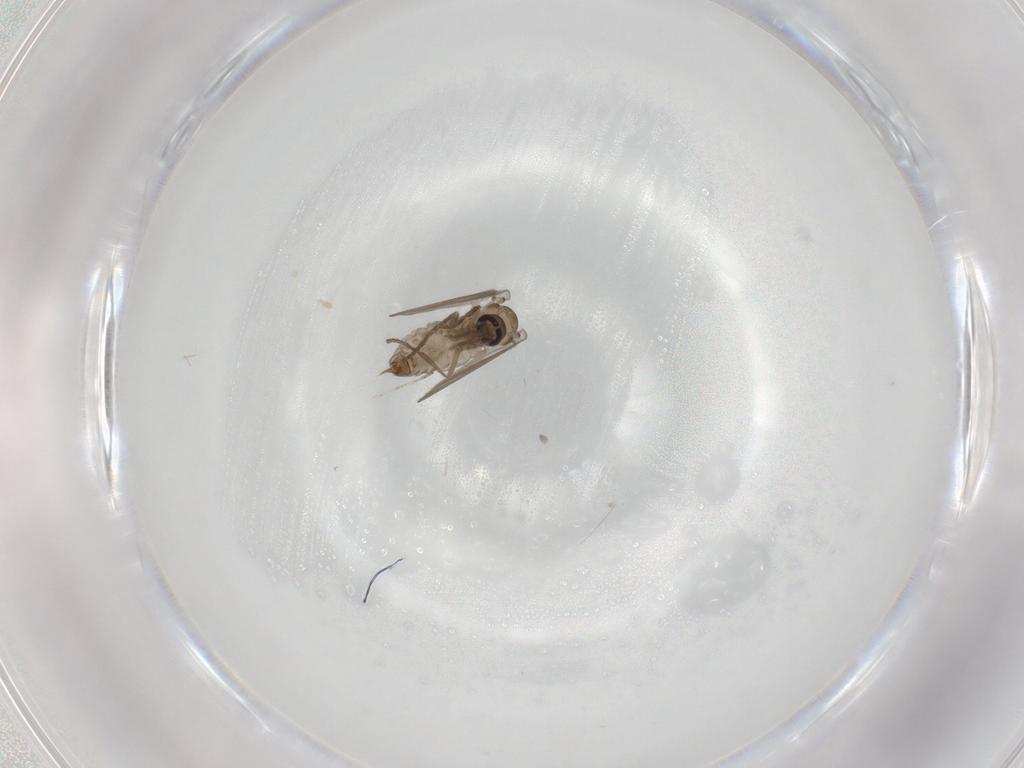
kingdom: Animalia
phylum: Arthropoda
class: Insecta
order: Diptera
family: Psychodidae
